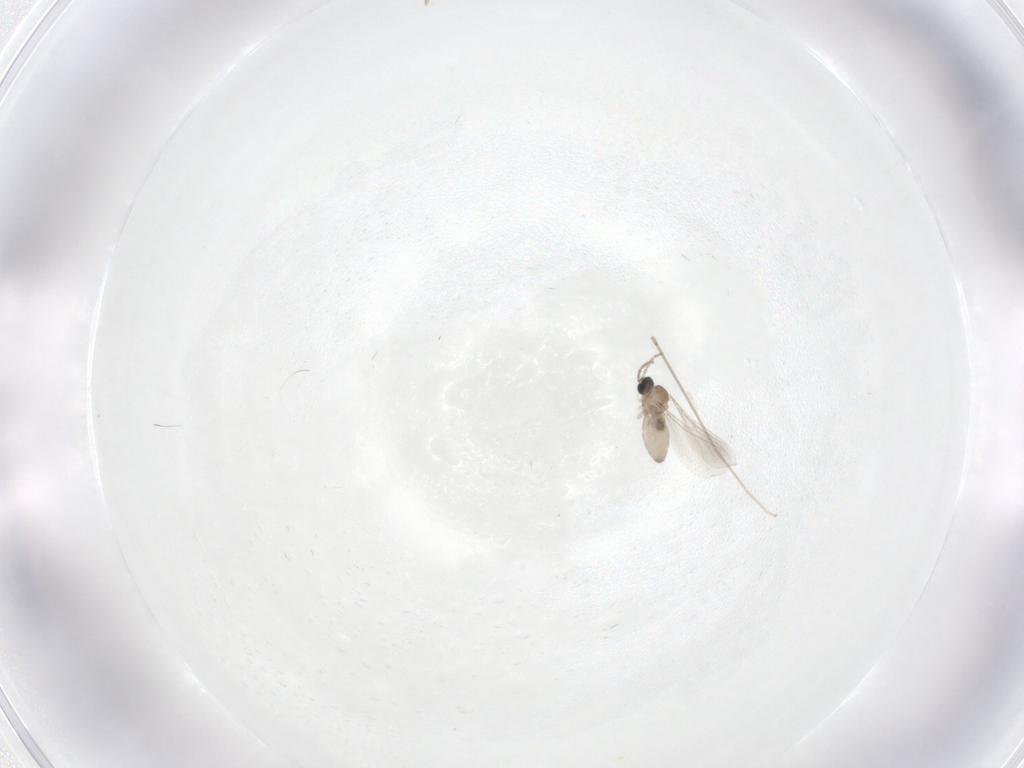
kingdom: Animalia
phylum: Arthropoda
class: Insecta
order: Diptera
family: Cecidomyiidae
